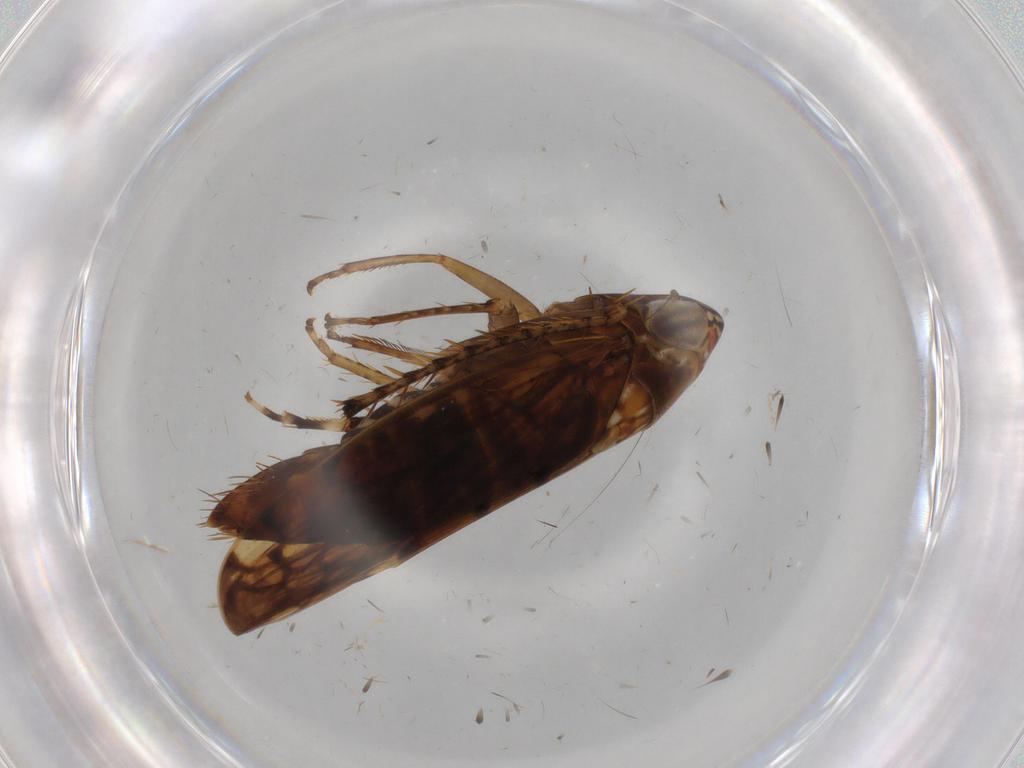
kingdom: Animalia
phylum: Arthropoda
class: Insecta
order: Hemiptera
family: Cicadellidae
